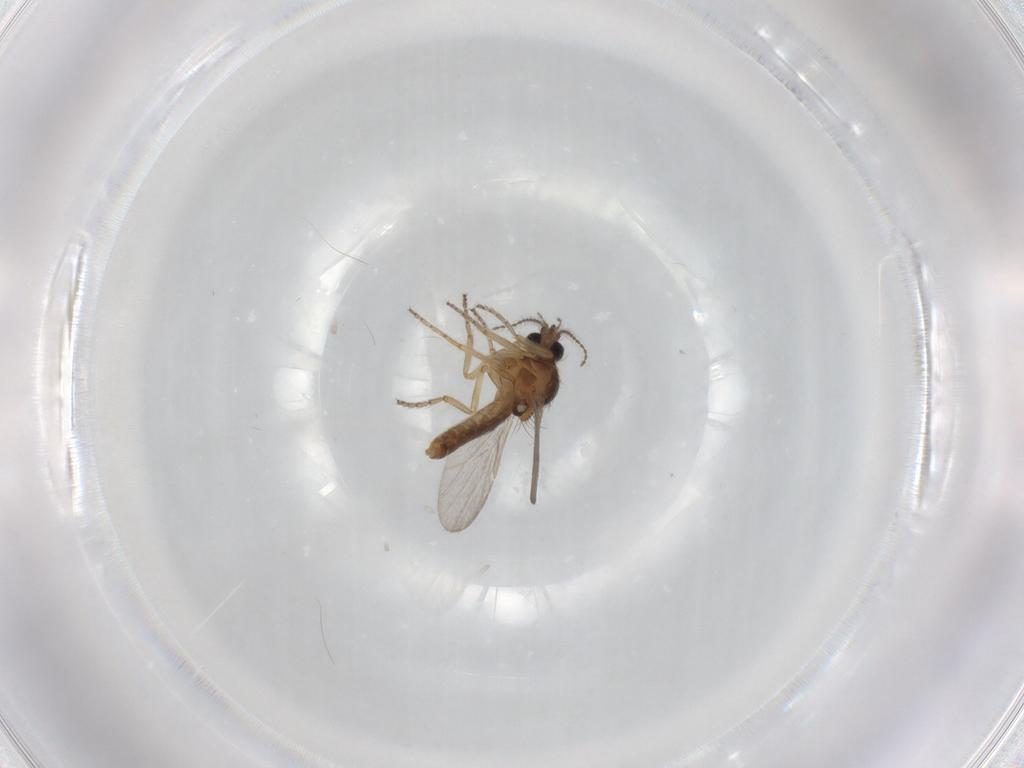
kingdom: Animalia
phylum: Arthropoda
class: Insecta
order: Diptera
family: Ceratopogonidae
